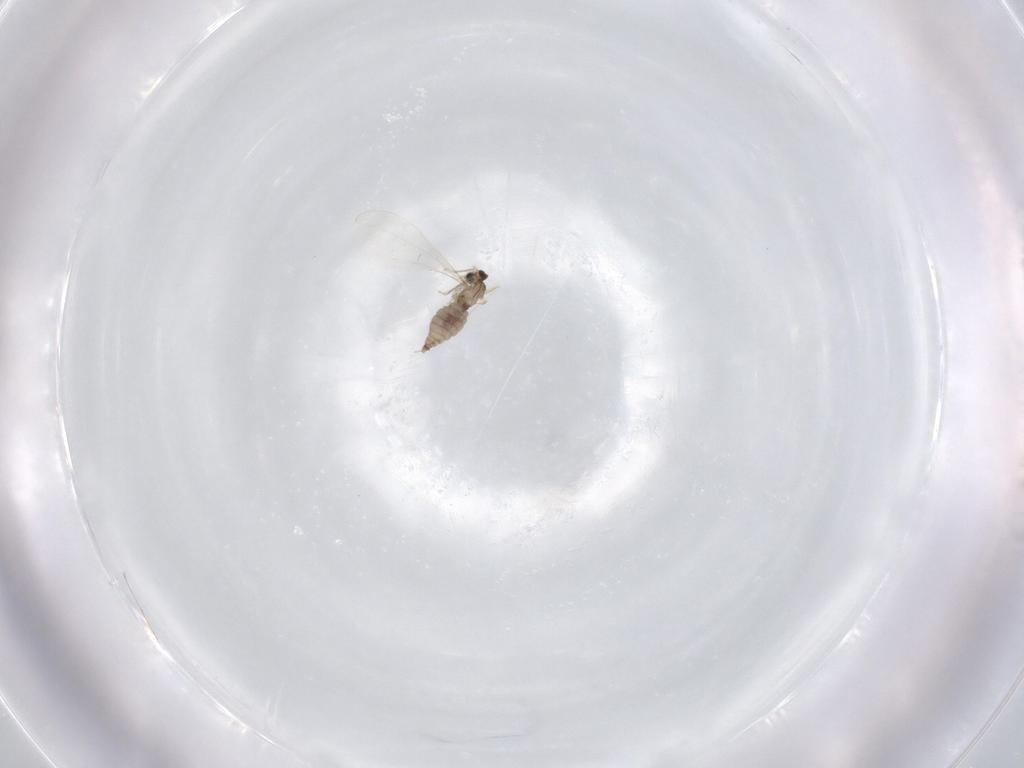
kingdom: Animalia
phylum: Arthropoda
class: Insecta
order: Diptera
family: Cecidomyiidae
